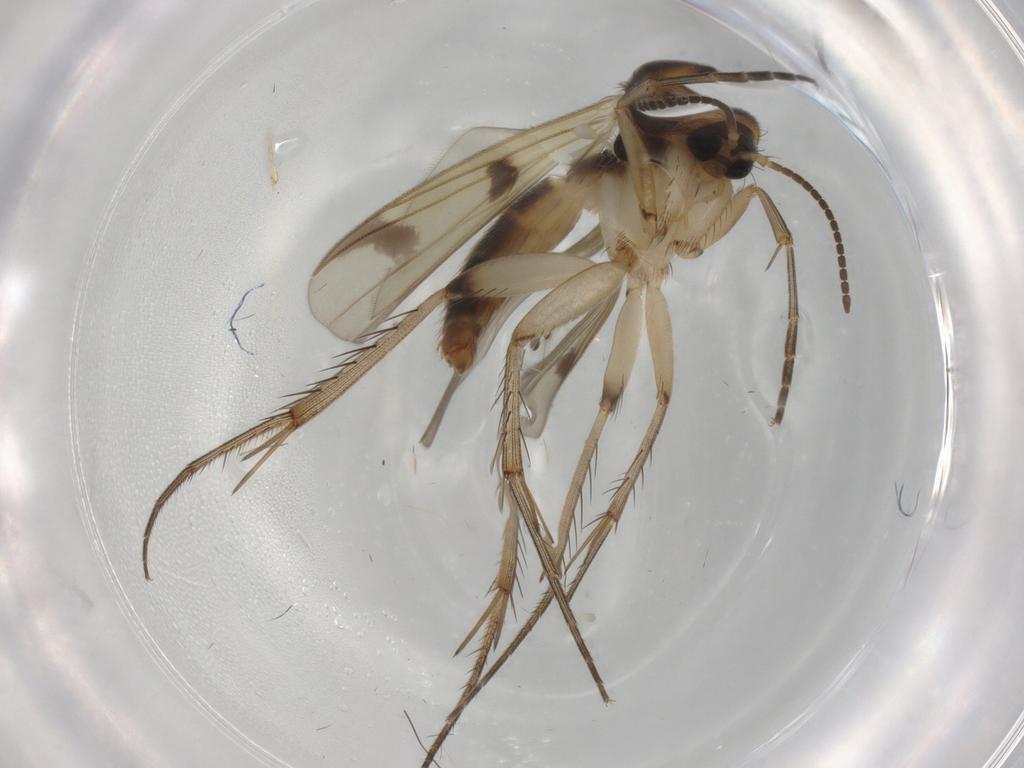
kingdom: Animalia
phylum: Arthropoda
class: Insecta
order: Diptera
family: Mycetophilidae
